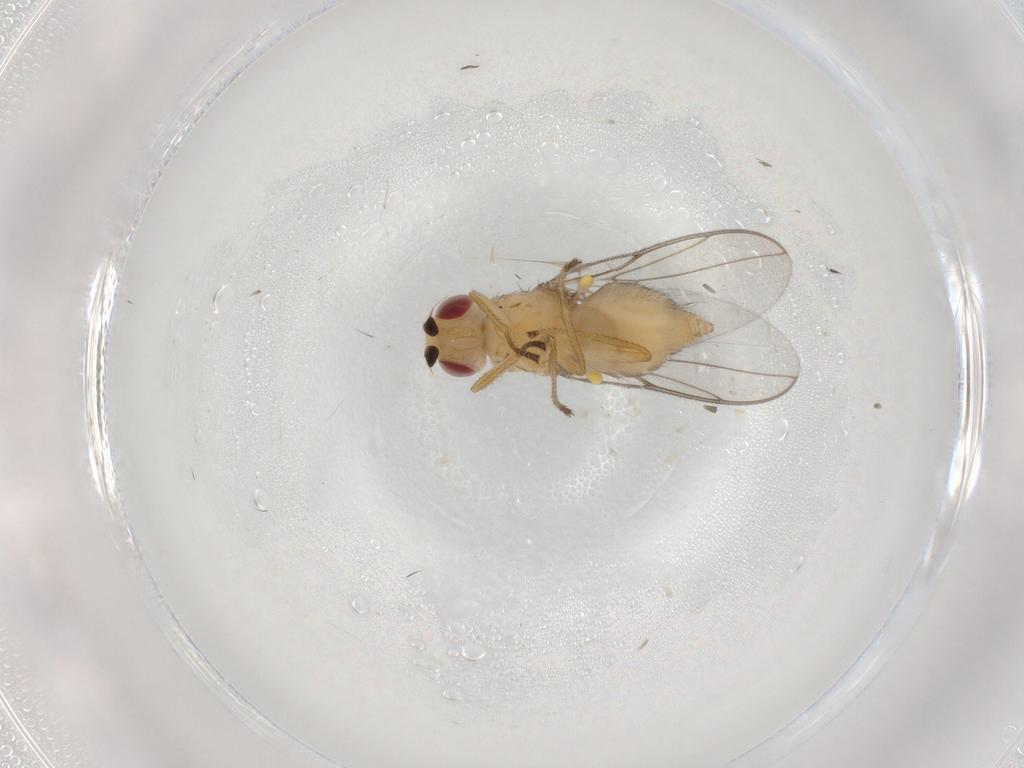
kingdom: Animalia
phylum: Arthropoda
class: Insecta
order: Diptera
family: Chloropidae
